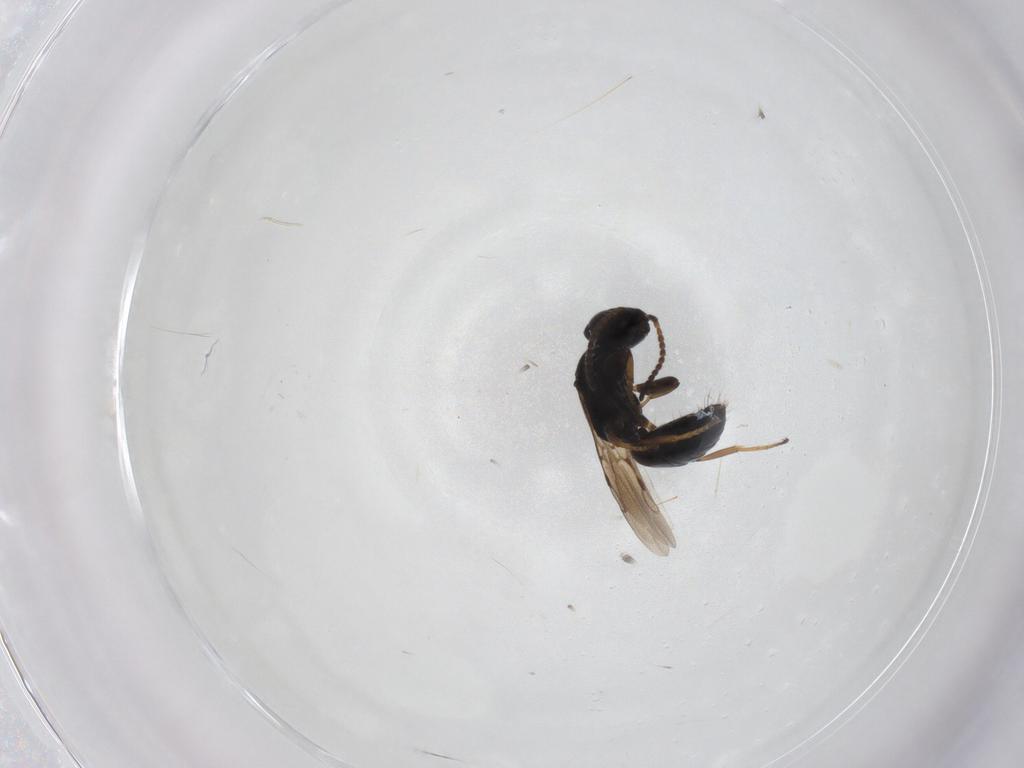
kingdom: Animalia
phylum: Arthropoda
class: Insecta
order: Hymenoptera
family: Bethylidae
